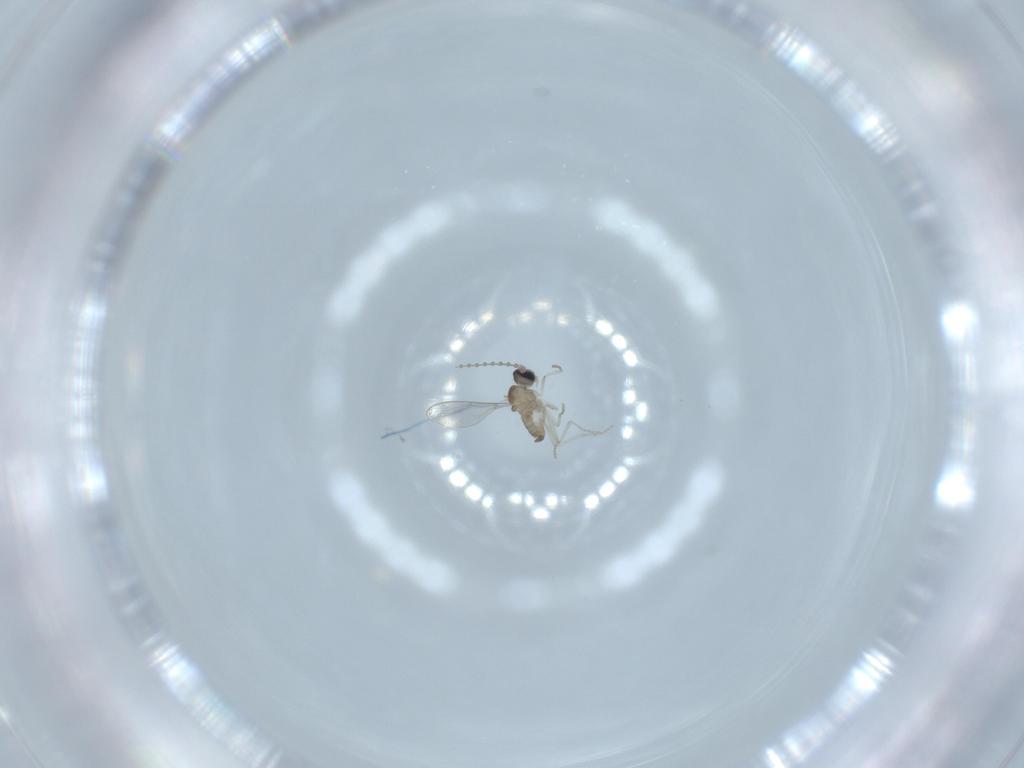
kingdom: Animalia
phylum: Arthropoda
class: Insecta
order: Diptera
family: Cecidomyiidae
